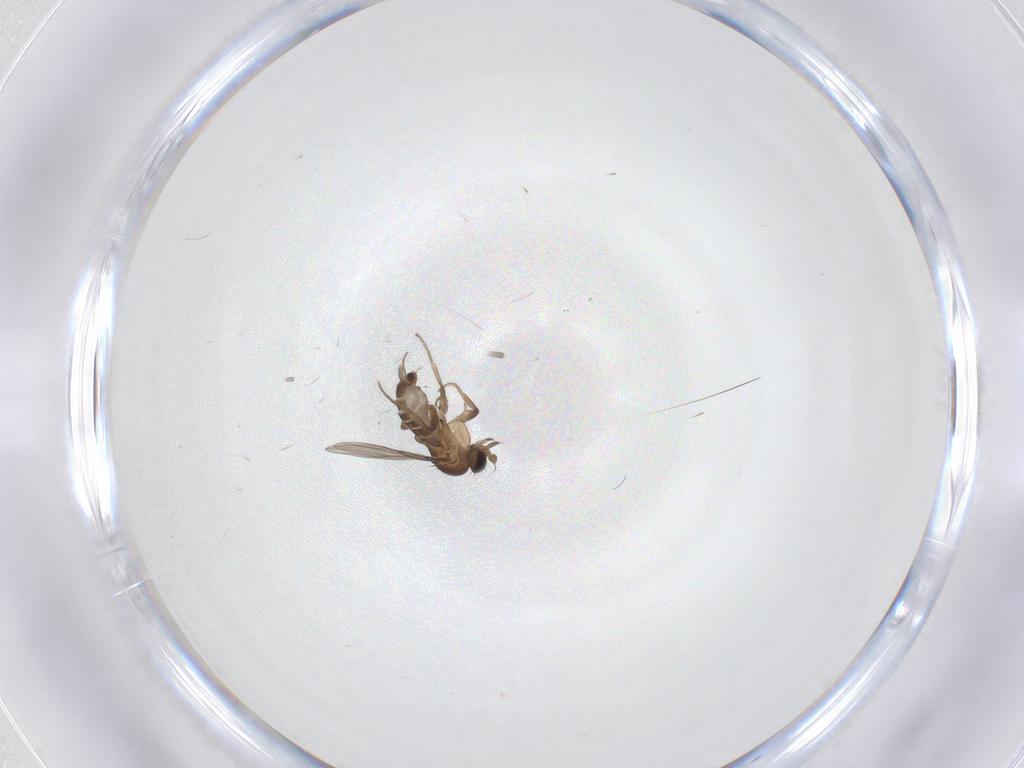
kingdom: Animalia
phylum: Arthropoda
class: Insecta
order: Diptera
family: Phoridae
